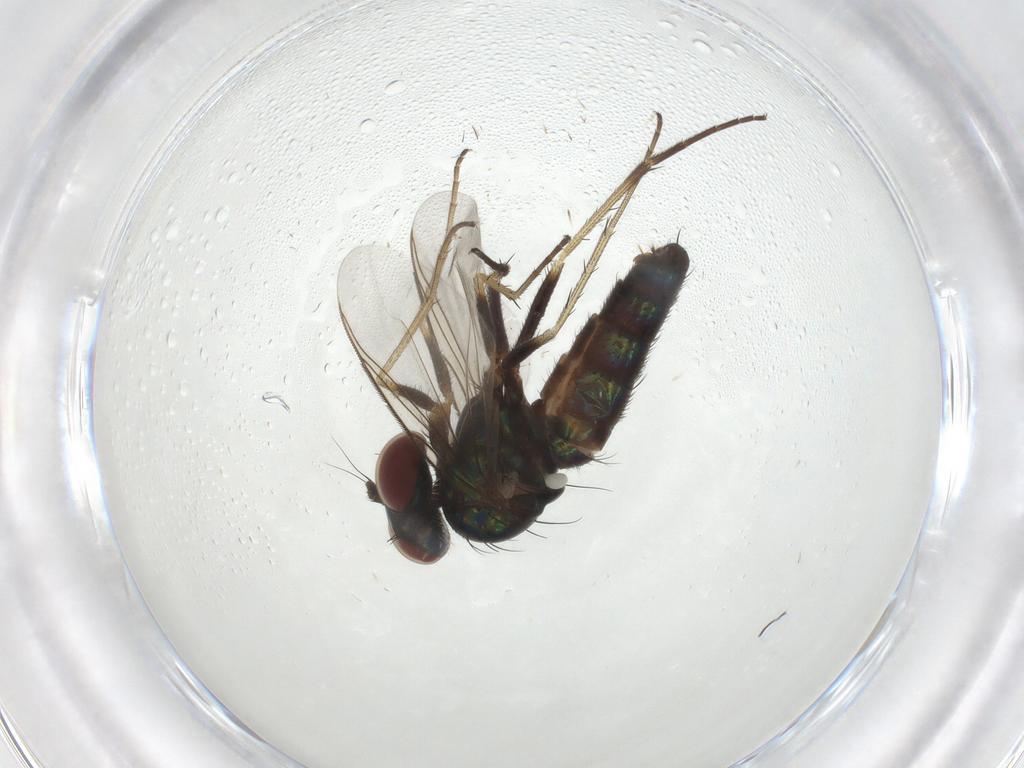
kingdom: Animalia
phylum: Arthropoda
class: Insecta
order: Diptera
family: Dolichopodidae
